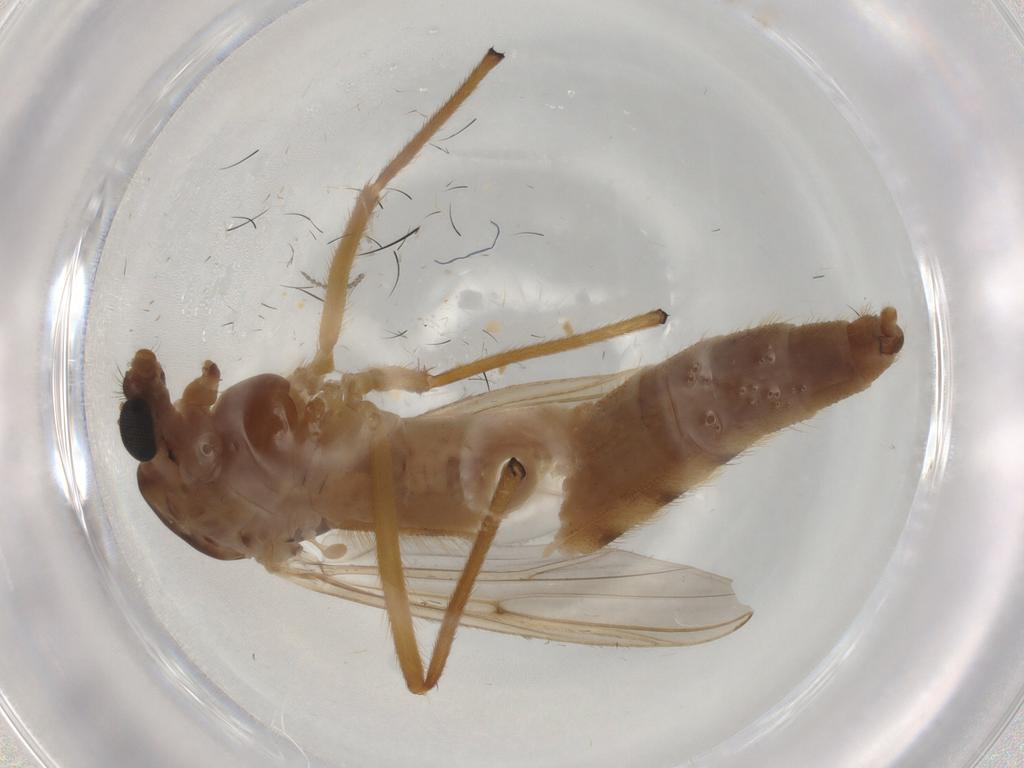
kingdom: Animalia
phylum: Arthropoda
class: Insecta
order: Diptera
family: Chironomidae
